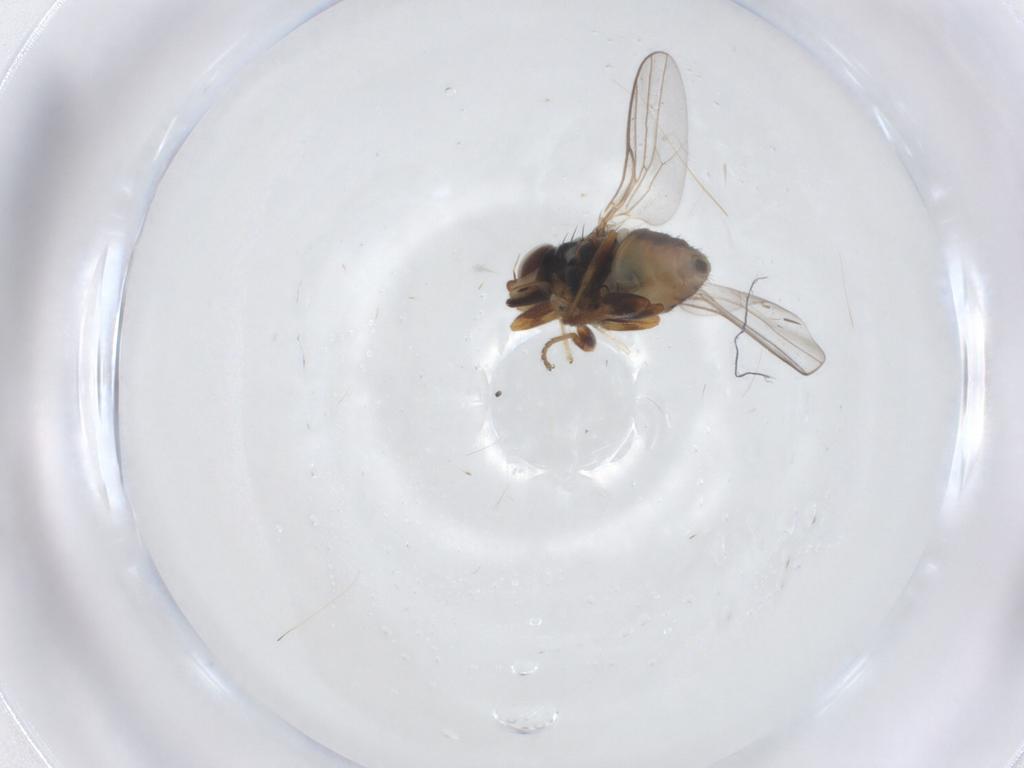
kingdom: Animalia
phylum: Arthropoda
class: Insecta
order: Diptera
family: Chloropidae
